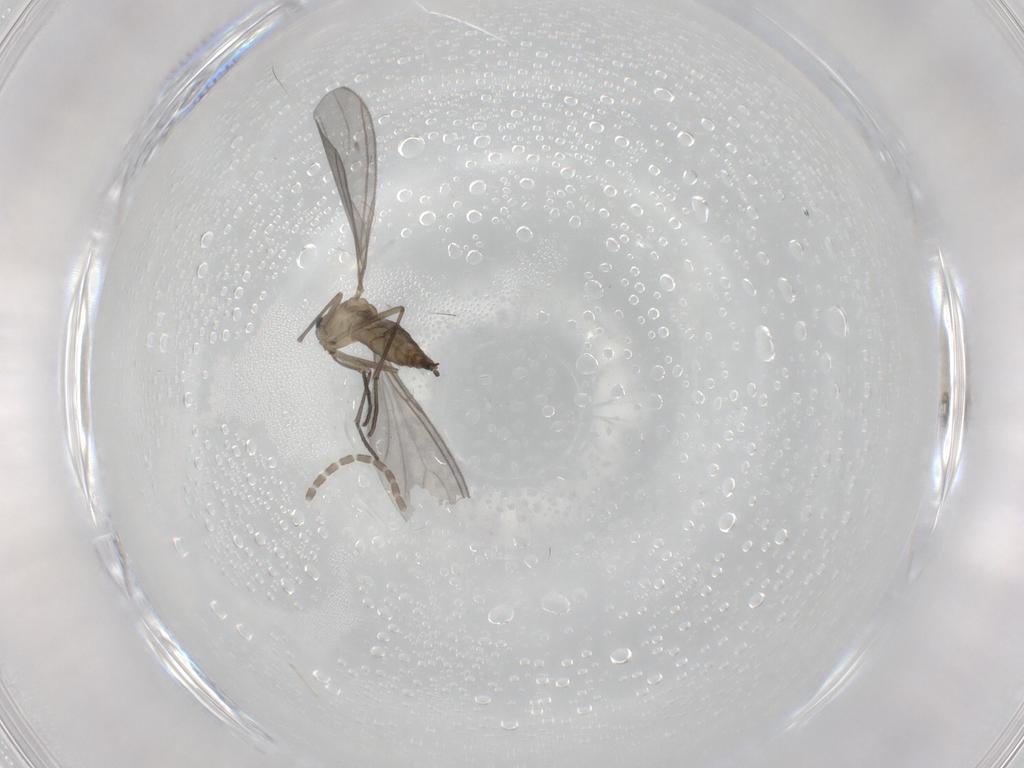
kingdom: Animalia
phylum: Arthropoda
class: Insecta
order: Diptera
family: Sciaridae
